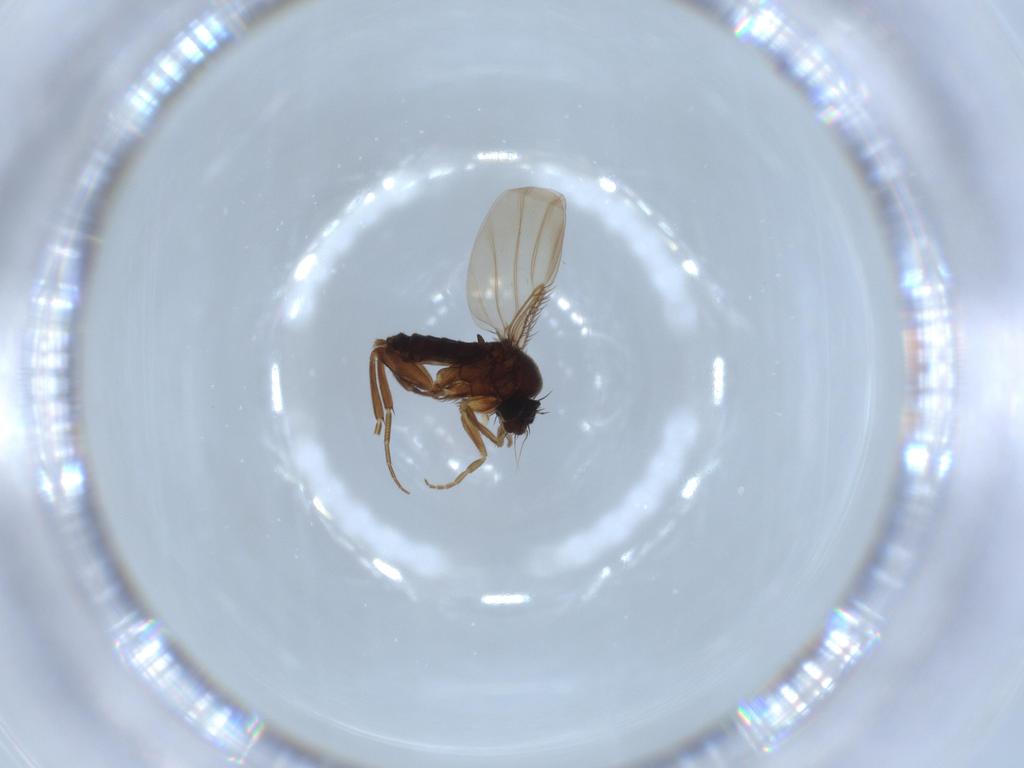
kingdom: Animalia
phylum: Arthropoda
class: Insecta
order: Diptera
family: Phoridae
